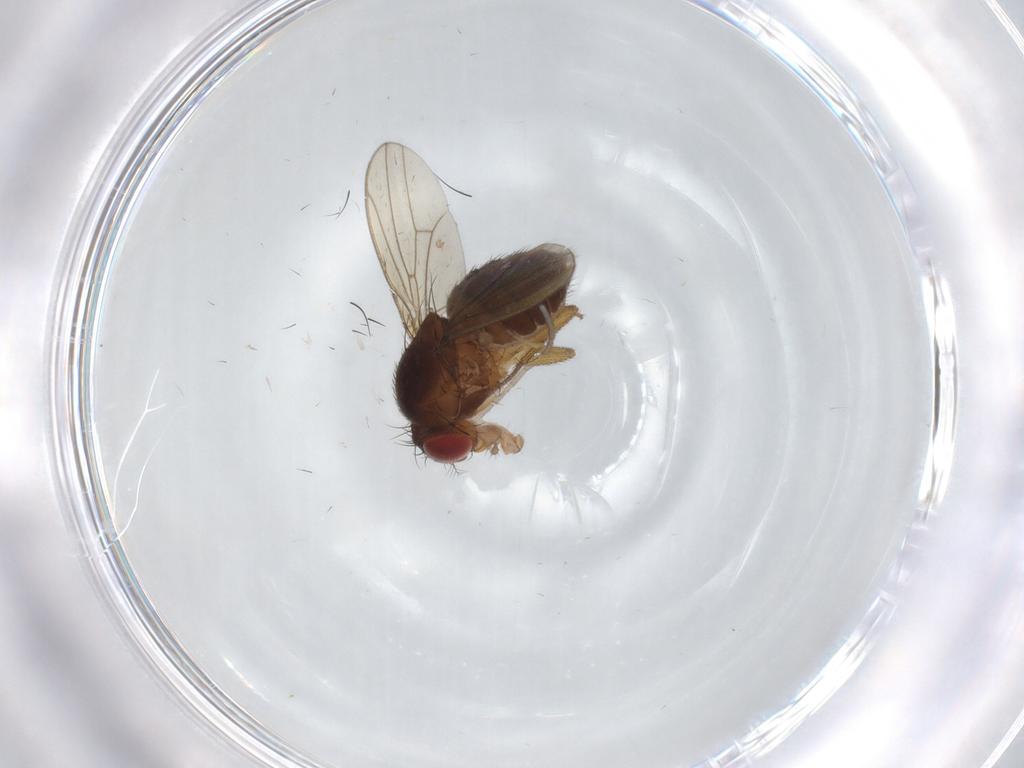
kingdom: Animalia
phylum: Arthropoda
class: Insecta
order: Diptera
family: Drosophilidae
